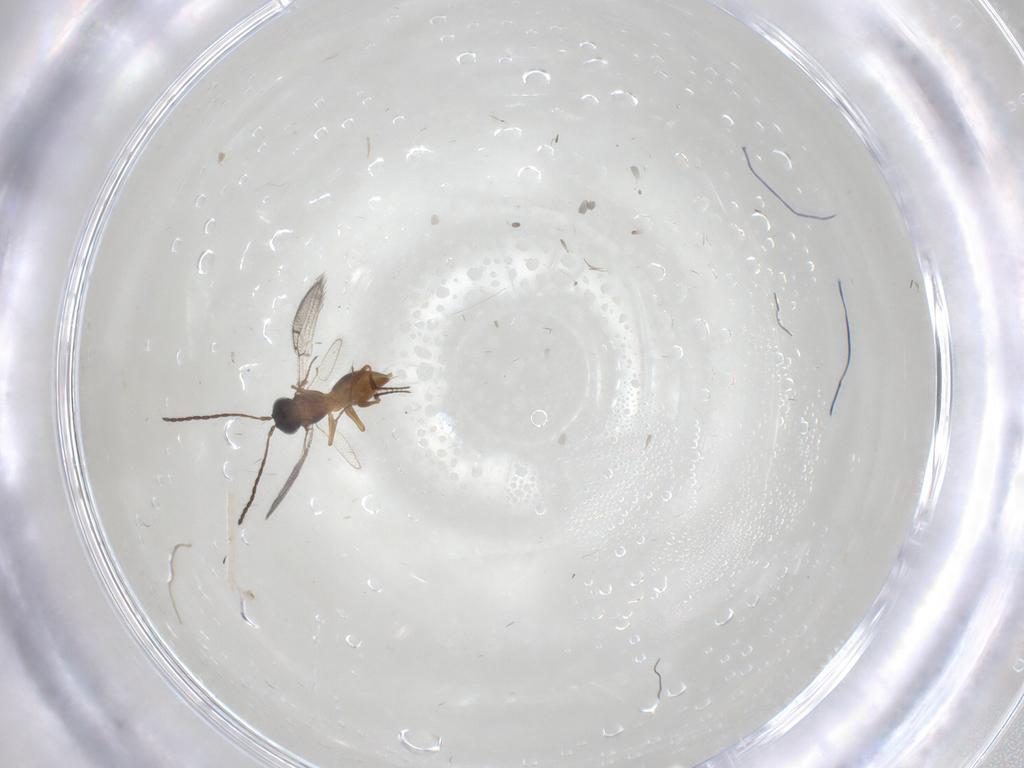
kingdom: Animalia
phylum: Arthropoda
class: Insecta
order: Hymenoptera
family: Figitidae
